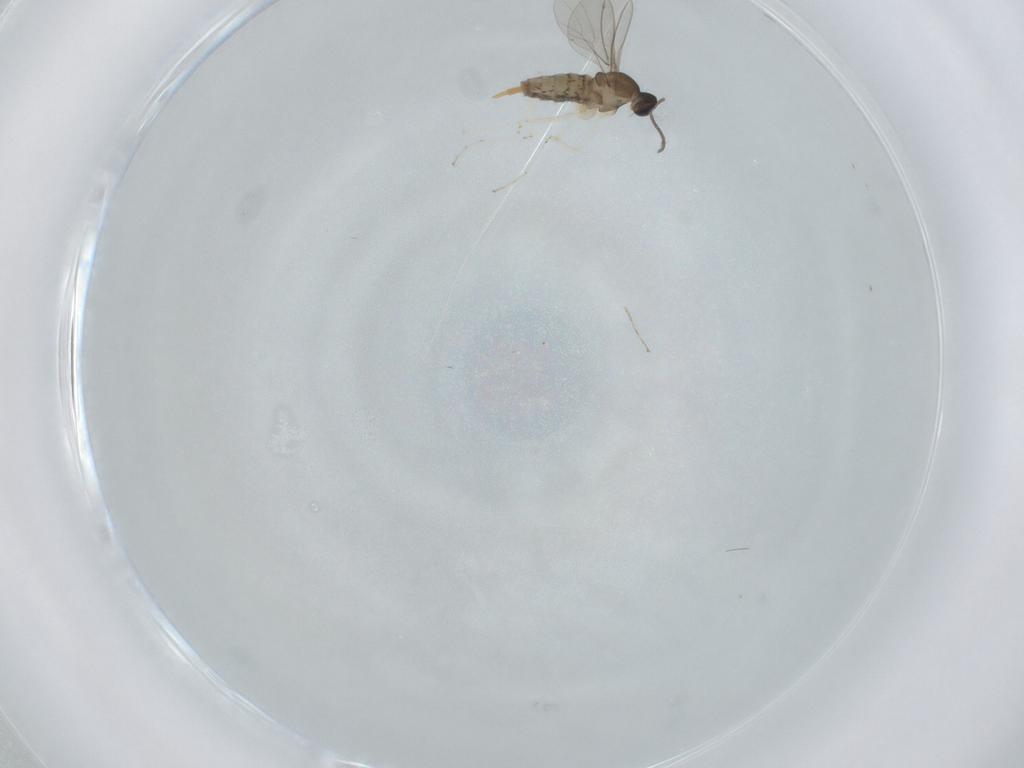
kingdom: Animalia
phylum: Arthropoda
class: Insecta
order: Diptera
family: Cecidomyiidae
